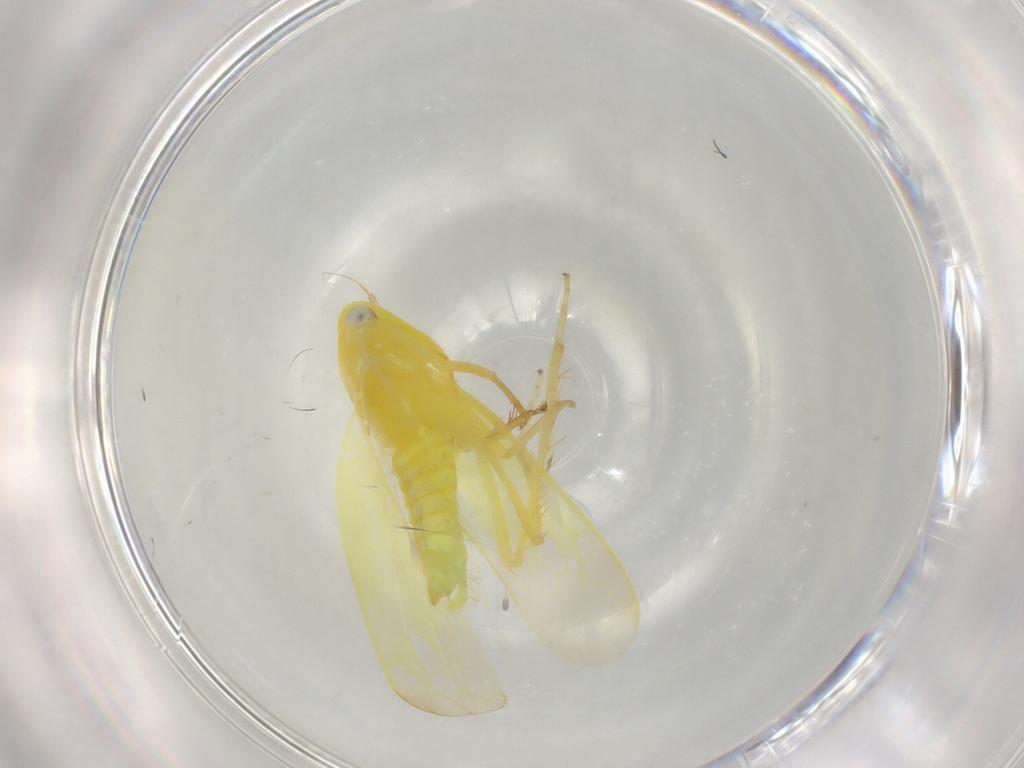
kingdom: Animalia
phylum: Arthropoda
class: Insecta
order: Hemiptera
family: Cicadellidae
